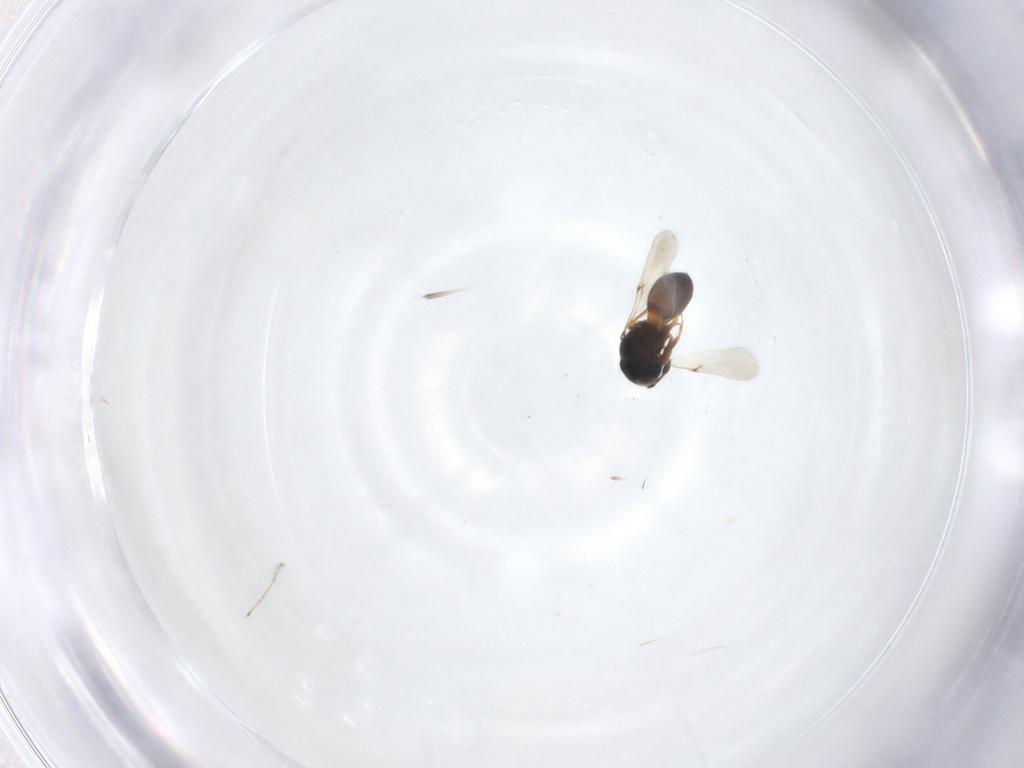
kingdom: Animalia
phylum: Arthropoda
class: Arachnida
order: Araneae
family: Pholcidae
